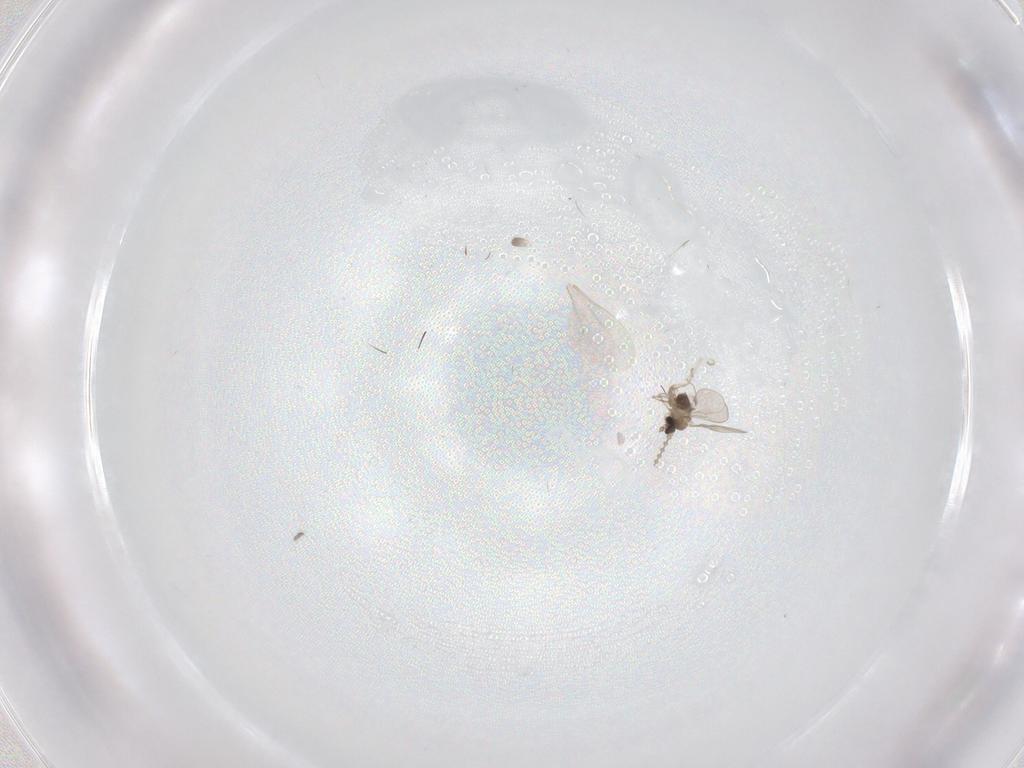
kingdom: Animalia
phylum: Arthropoda
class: Insecta
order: Diptera
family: Cecidomyiidae
